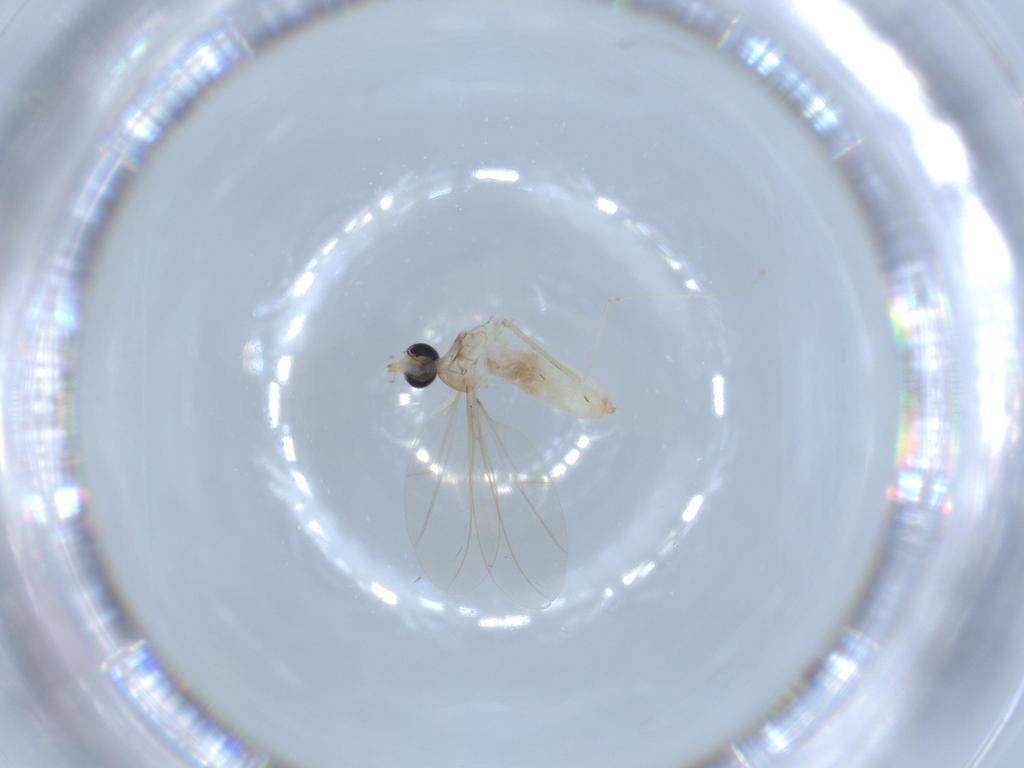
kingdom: Animalia
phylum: Arthropoda
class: Insecta
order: Diptera
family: Cecidomyiidae
